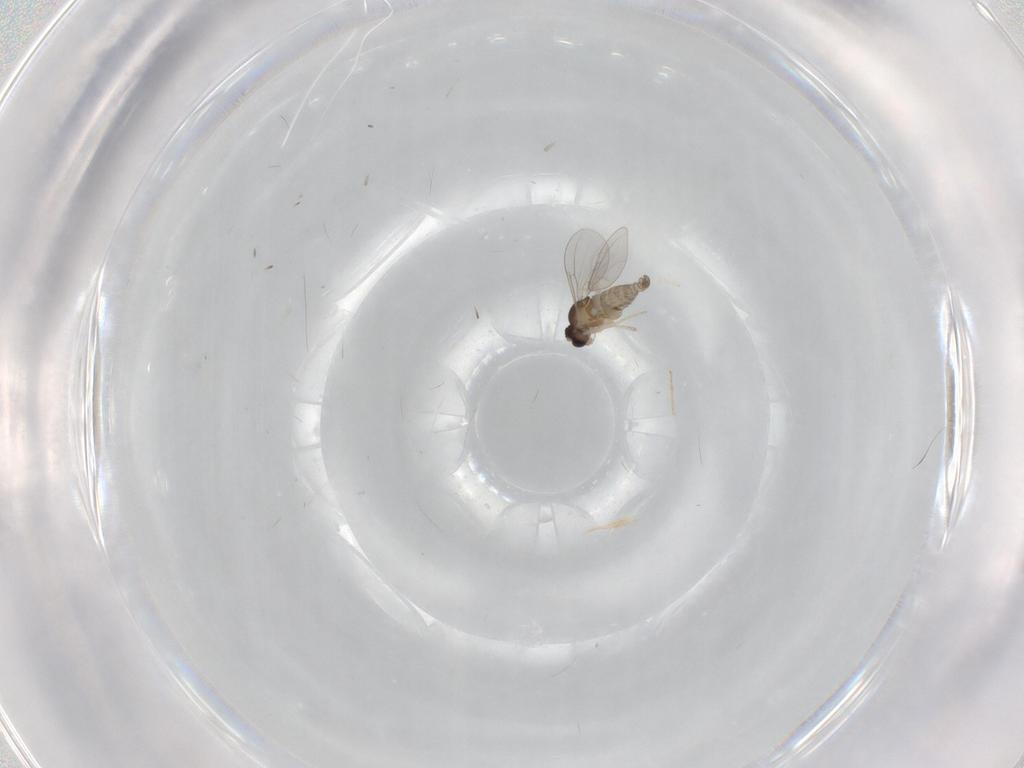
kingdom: Animalia
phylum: Arthropoda
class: Insecta
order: Diptera
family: Cecidomyiidae
